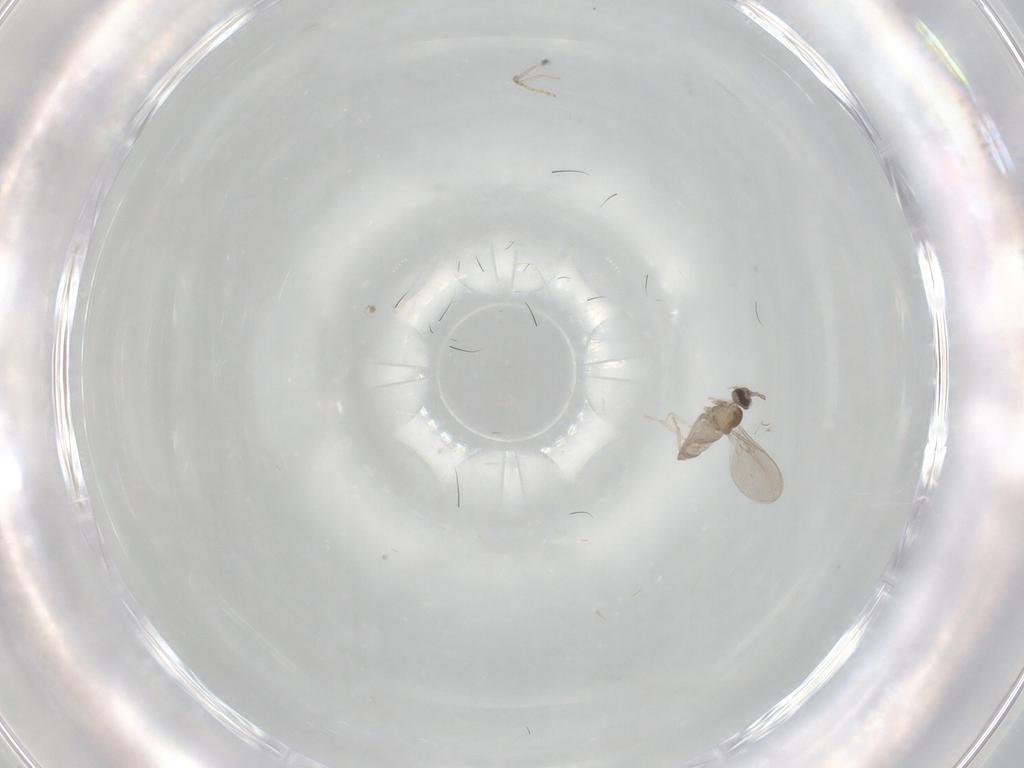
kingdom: Animalia
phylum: Arthropoda
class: Insecta
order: Diptera
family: Cecidomyiidae
